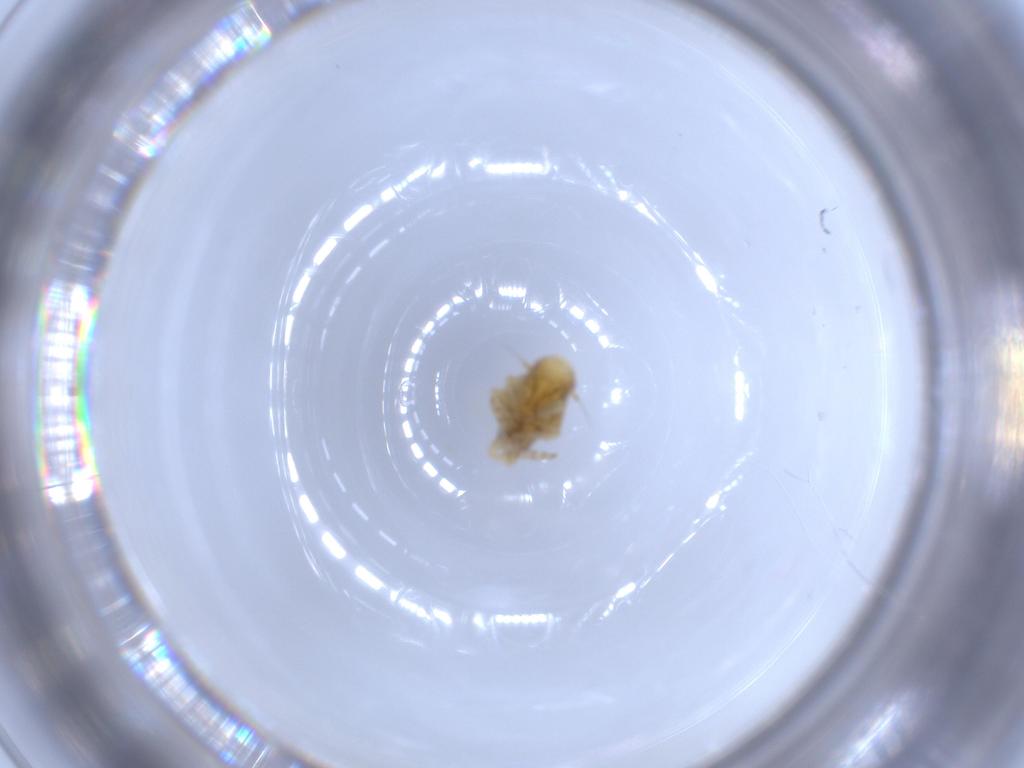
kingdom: Animalia
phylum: Arthropoda
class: Insecta
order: Hemiptera
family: Flatidae
